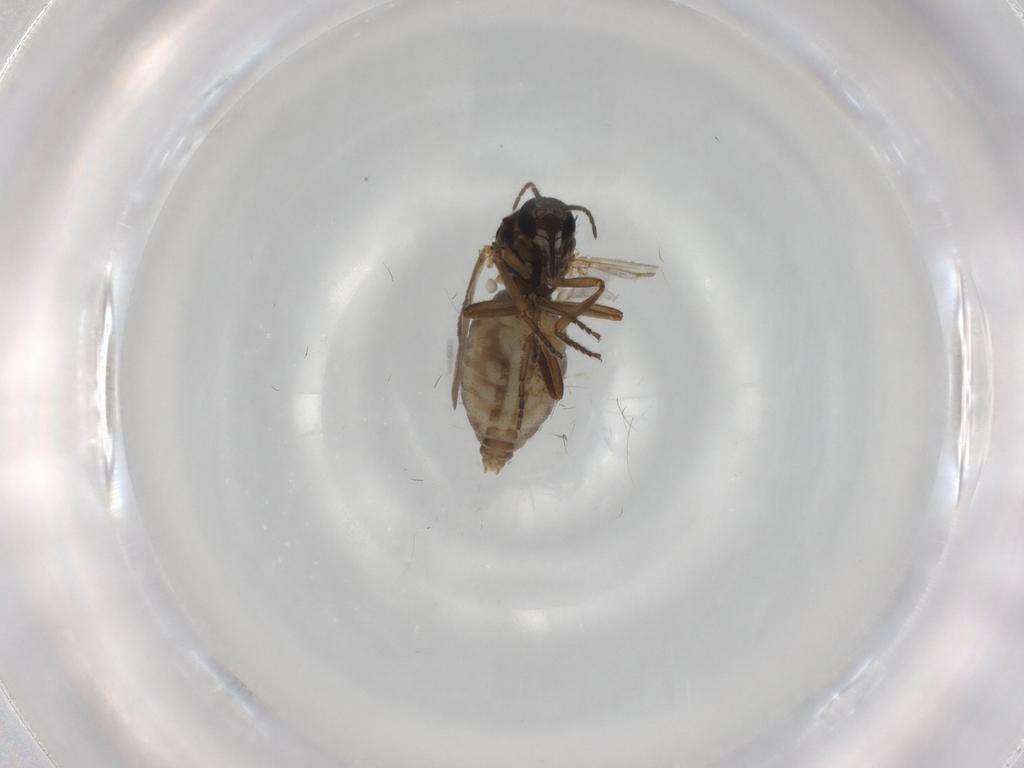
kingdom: Animalia
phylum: Arthropoda
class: Insecta
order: Diptera
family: Ceratopogonidae
